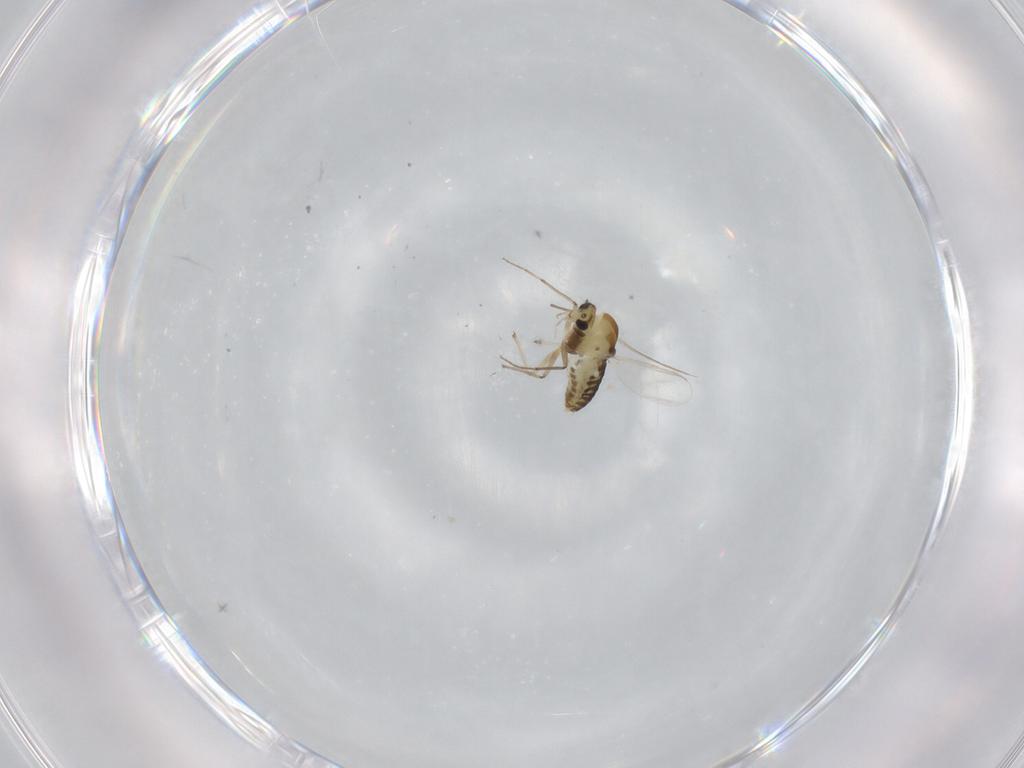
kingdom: Animalia
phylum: Arthropoda
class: Insecta
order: Diptera
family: Chironomidae
